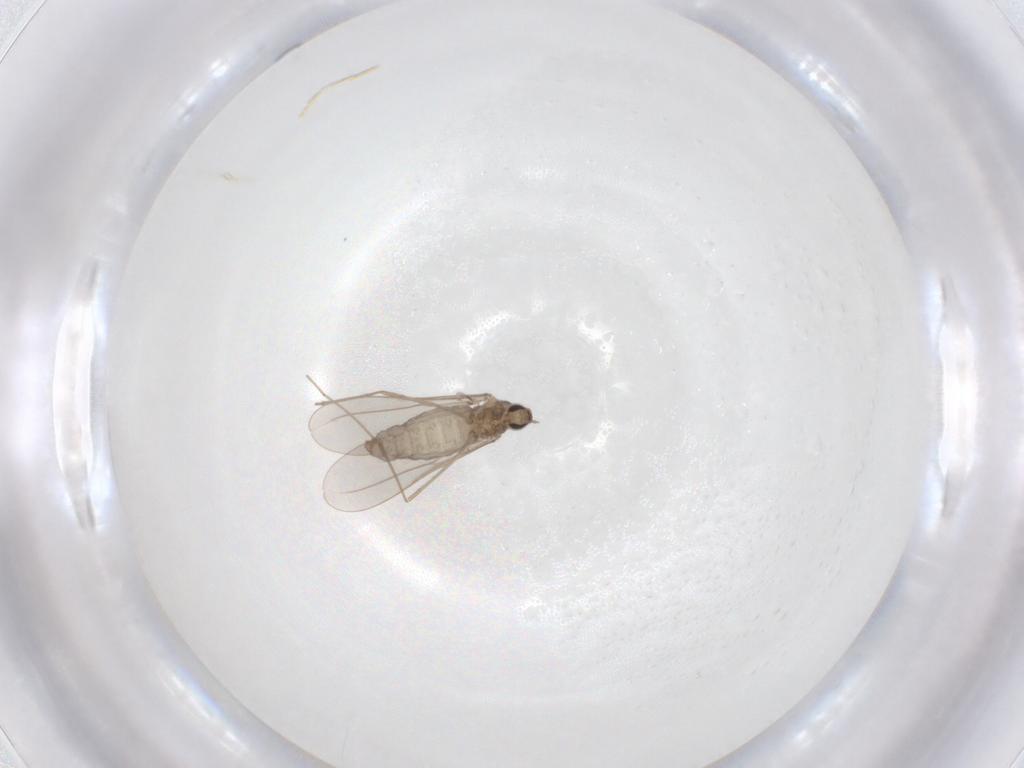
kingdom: Animalia
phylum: Arthropoda
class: Insecta
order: Diptera
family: Cecidomyiidae
